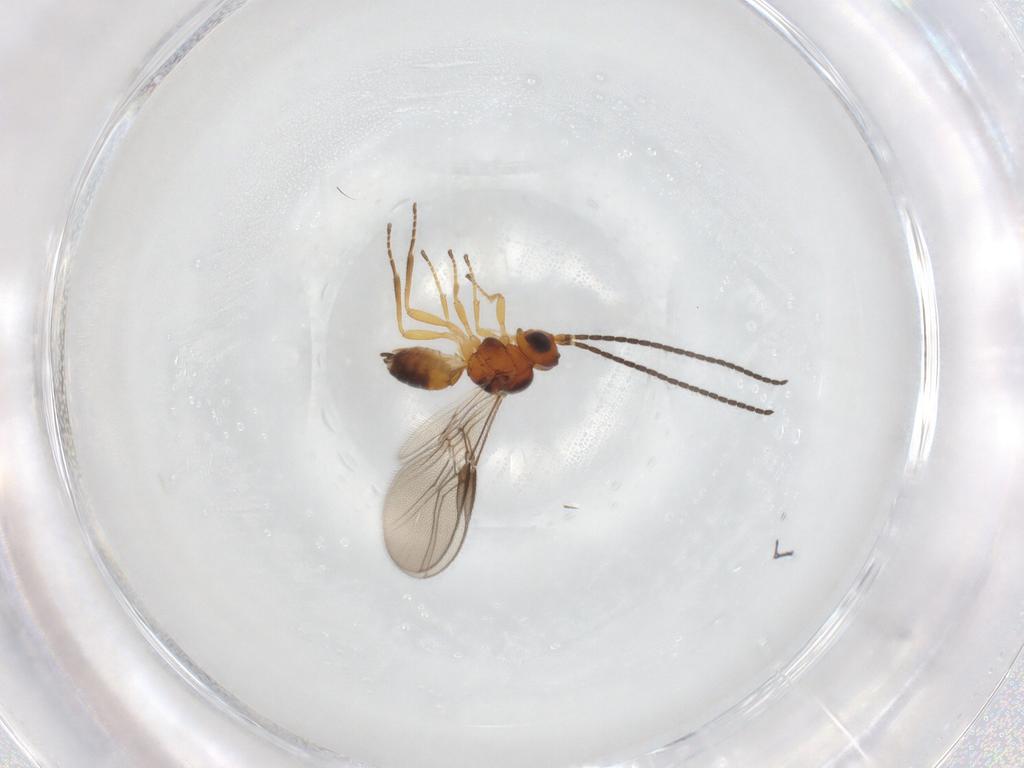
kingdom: Animalia
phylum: Arthropoda
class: Insecta
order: Hymenoptera
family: Braconidae
